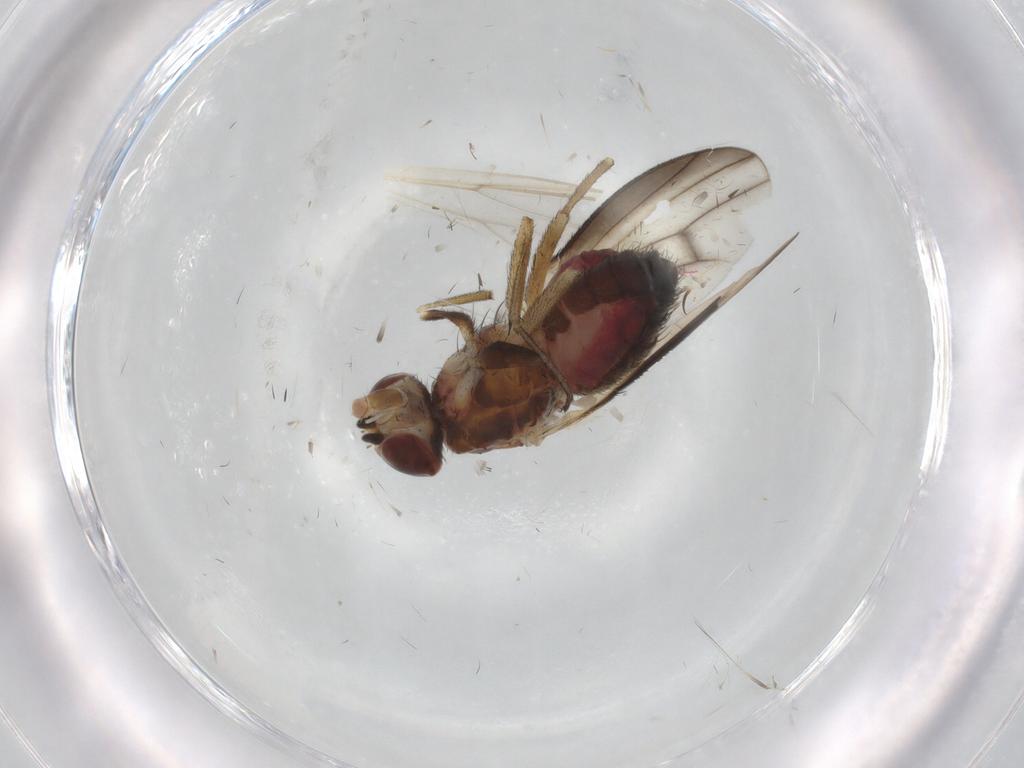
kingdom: Animalia
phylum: Arthropoda
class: Insecta
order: Diptera
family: Heleomyzidae
